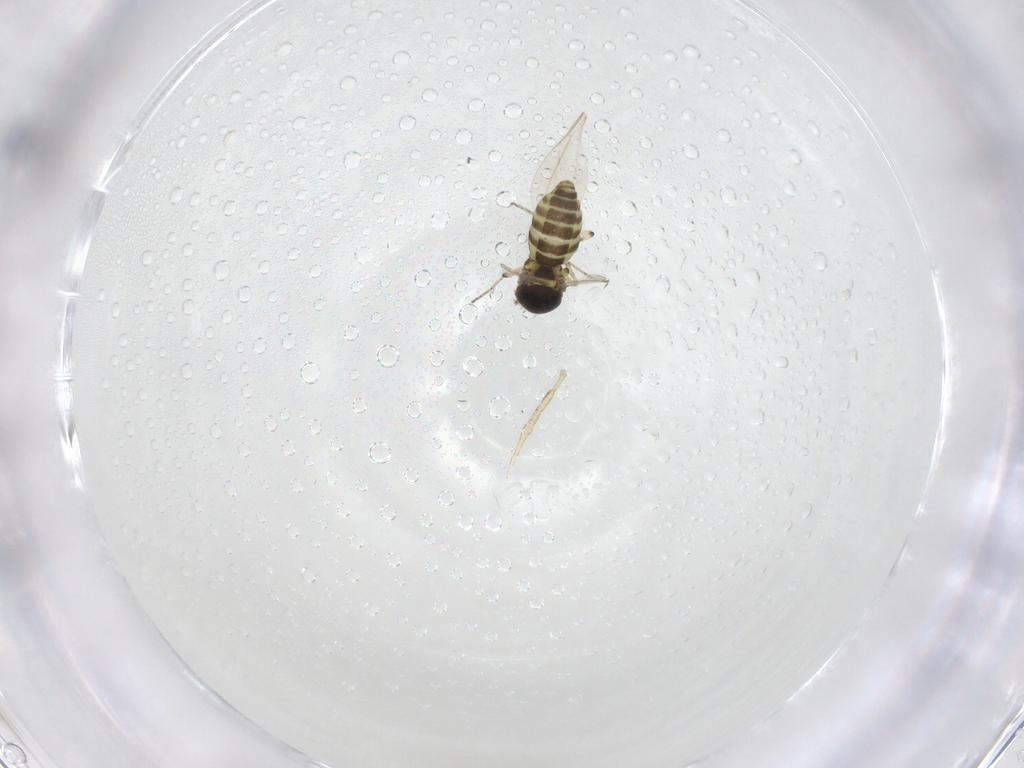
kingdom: Animalia
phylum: Arthropoda
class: Insecta
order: Diptera
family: Ceratopogonidae
